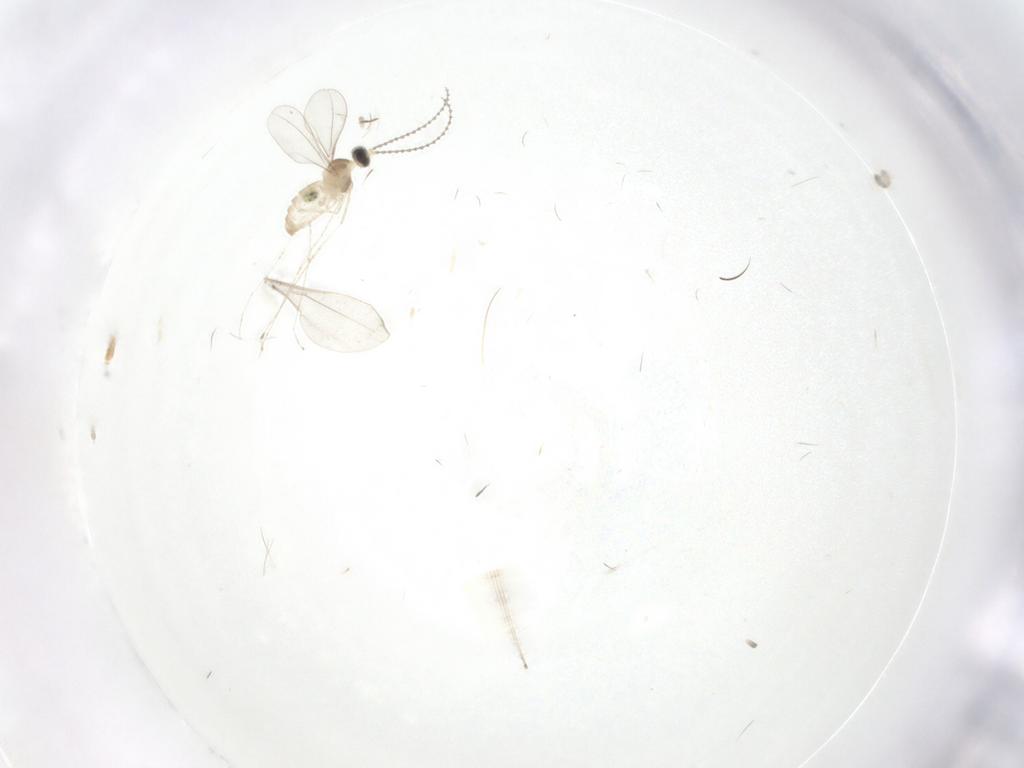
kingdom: Animalia
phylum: Arthropoda
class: Insecta
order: Diptera
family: Cecidomyiidae
